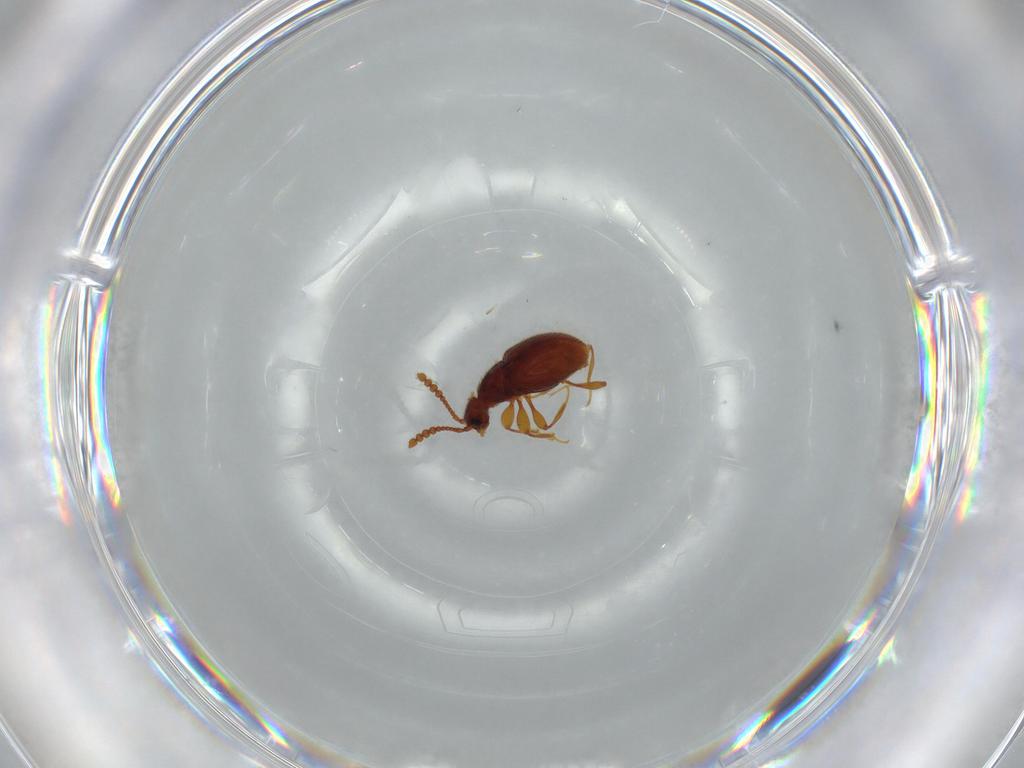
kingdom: Animalia
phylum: Arthropoda
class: Insecta
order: Coleoptera
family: Staphylinidae
